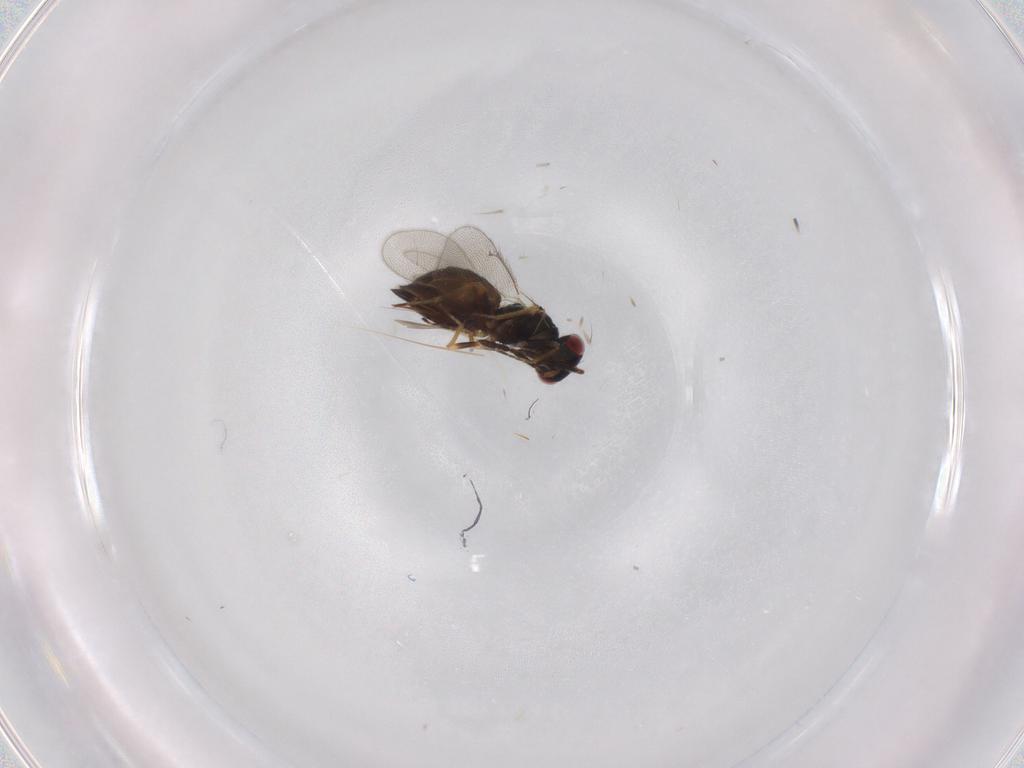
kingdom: Animalia
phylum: Arthropoda
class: Insecta
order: Hymenoptera
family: Eulophidae
